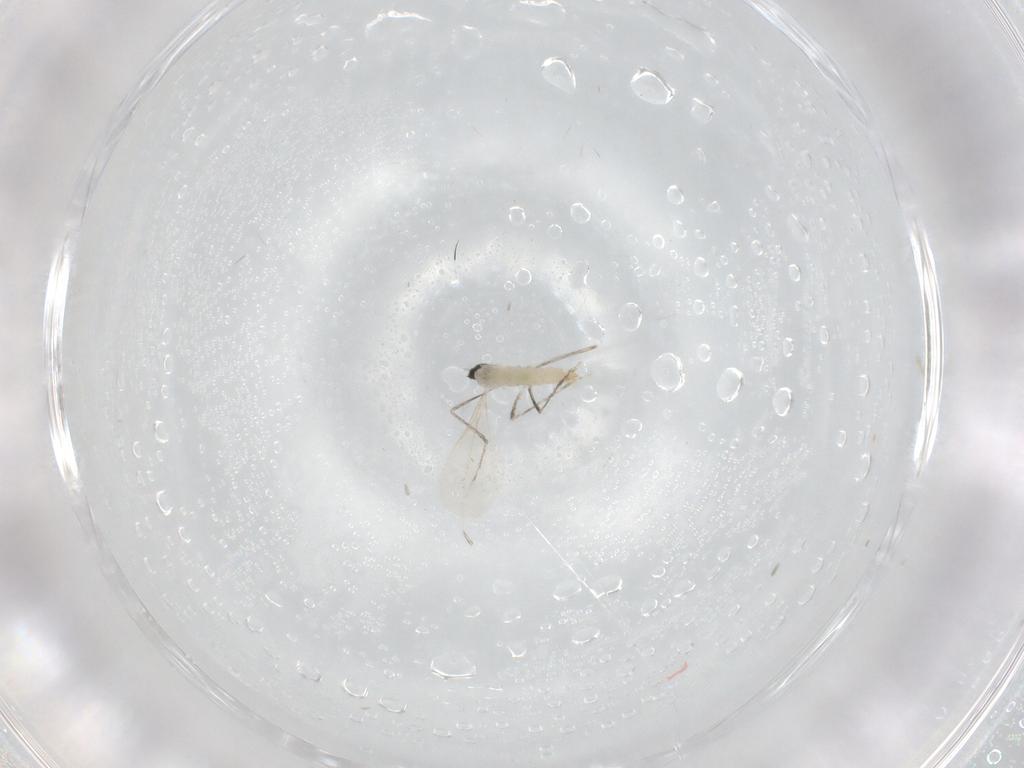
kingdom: Animalia
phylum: Arthropoda
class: Insecta
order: Diptera
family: Cecidomyiidae
